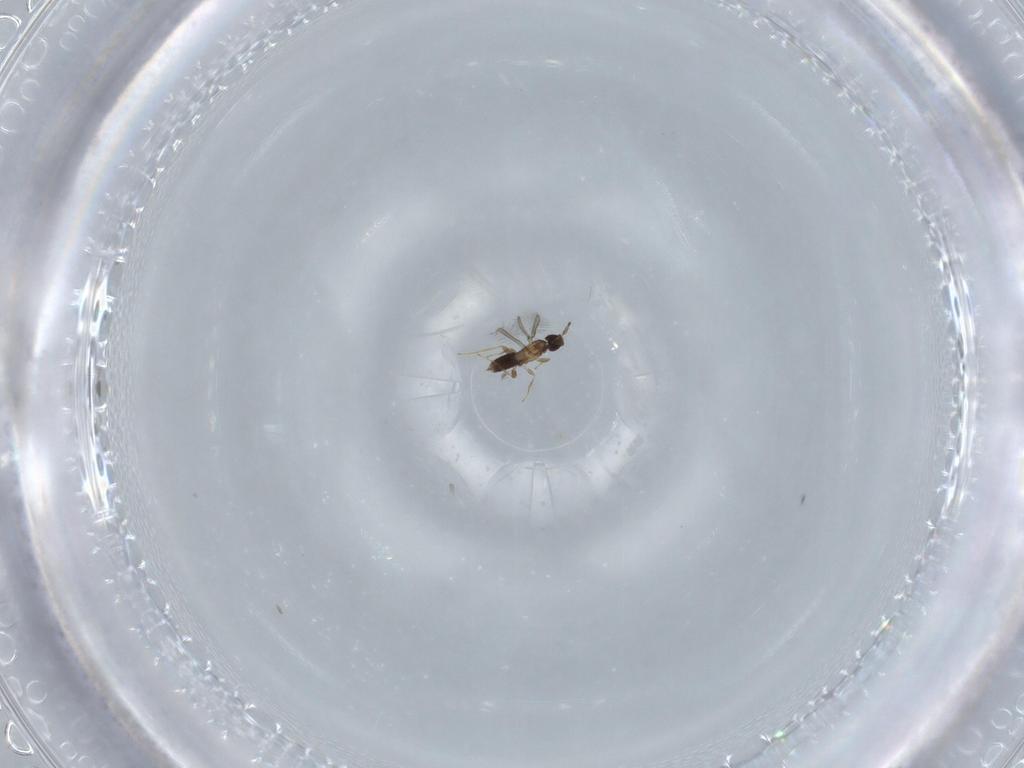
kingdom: Animalia
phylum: Arthropoda
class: Insecta
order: Hymenoptera
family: Mymaridae
